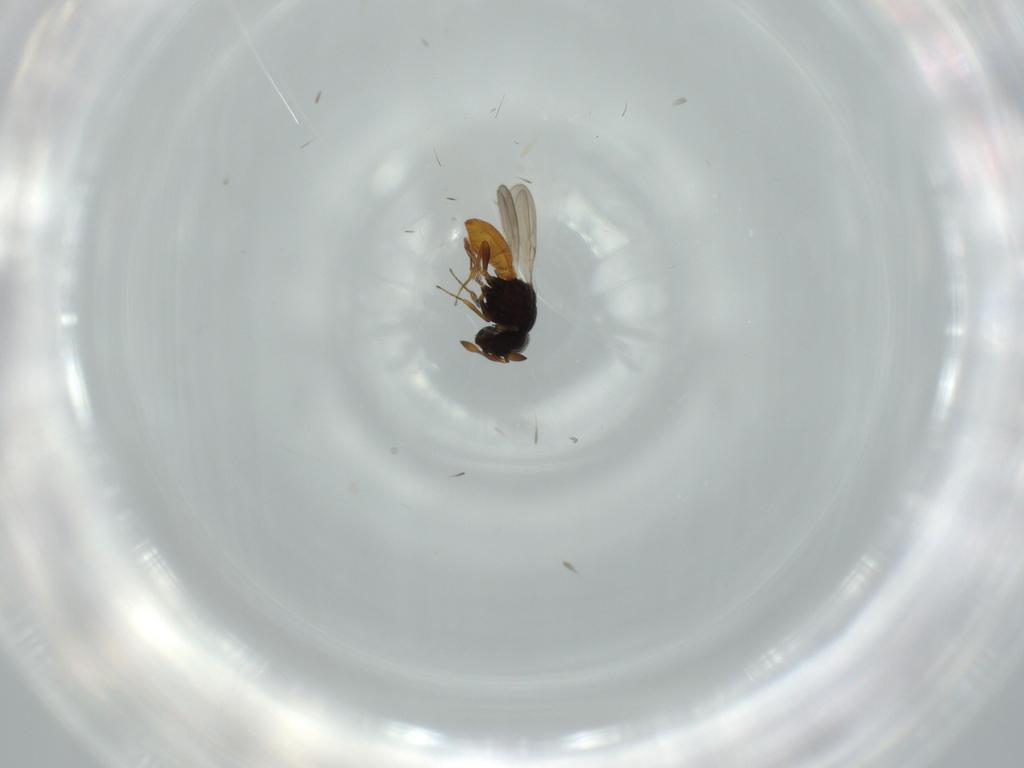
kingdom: Animalia
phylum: Arthropoda
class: Insecta
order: Hymenoptera
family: Scelionidae
